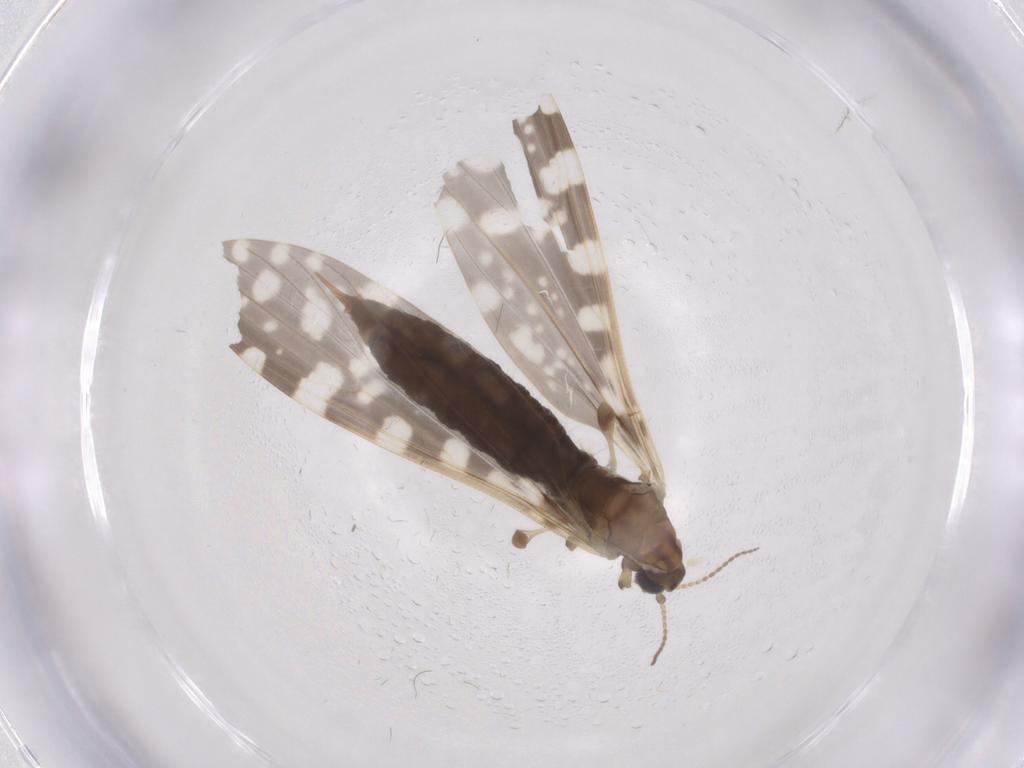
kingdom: Animalia
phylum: Arthropoda
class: Insecta
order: Diptera
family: Limoniidae
